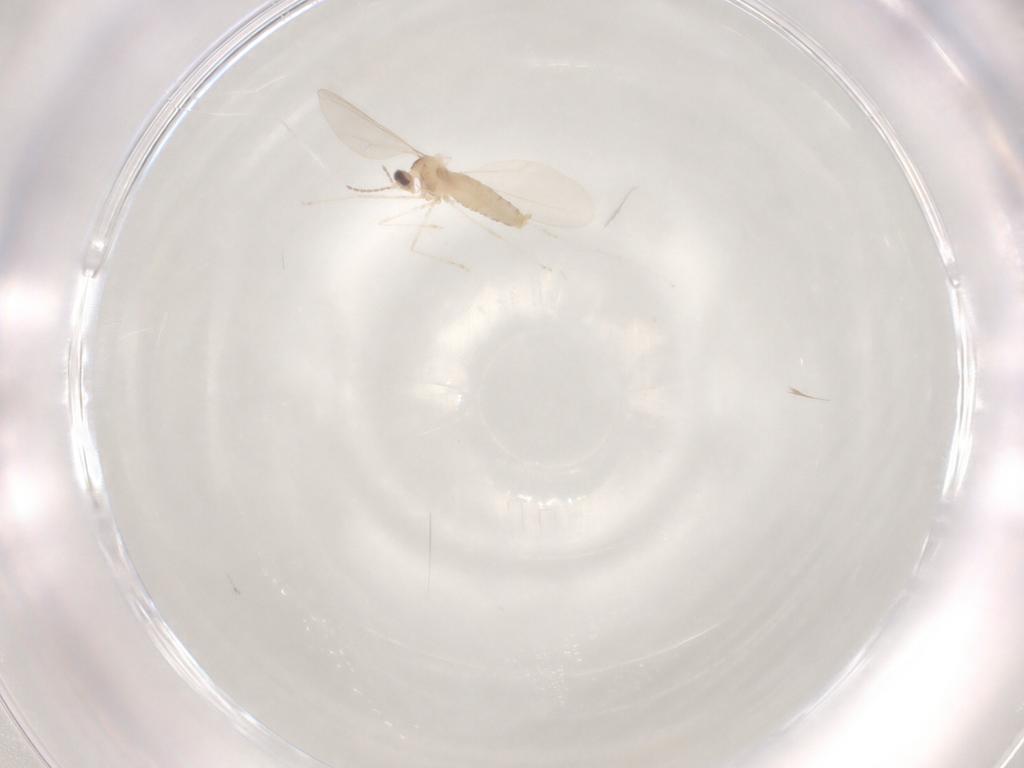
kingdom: Animalia
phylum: Arthropoda
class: Insecta
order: Diptera
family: Cecidomyiidae
